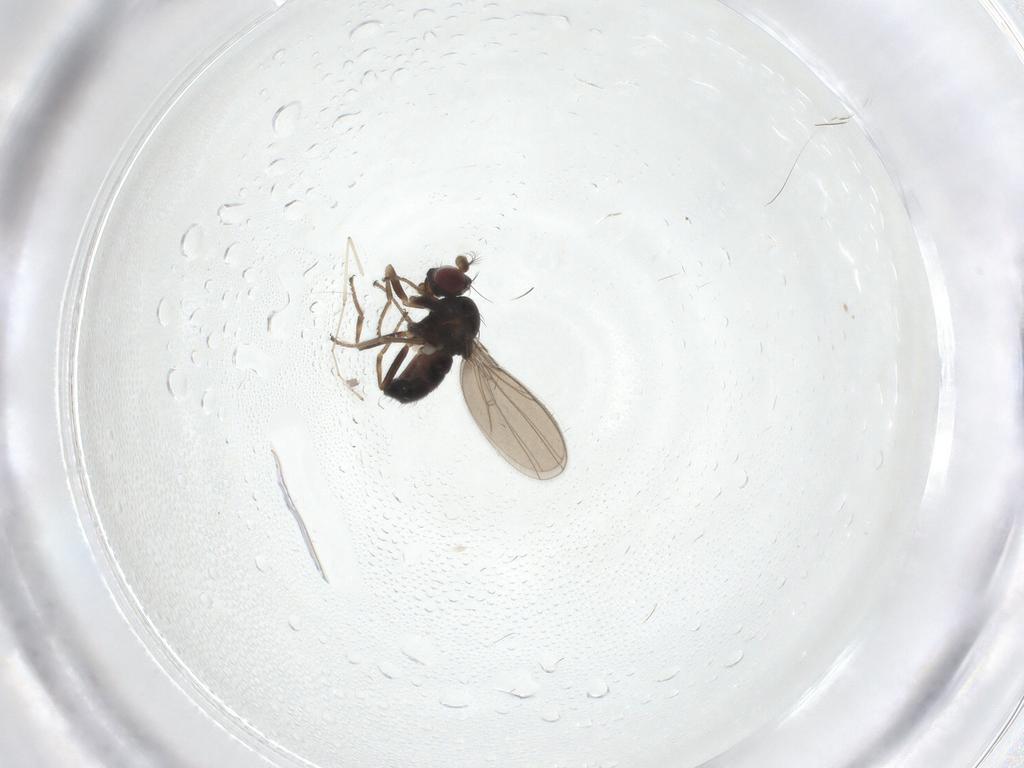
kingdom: Animalia
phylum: Arthropoda
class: Insecta
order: Diptera
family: Ephydridae
